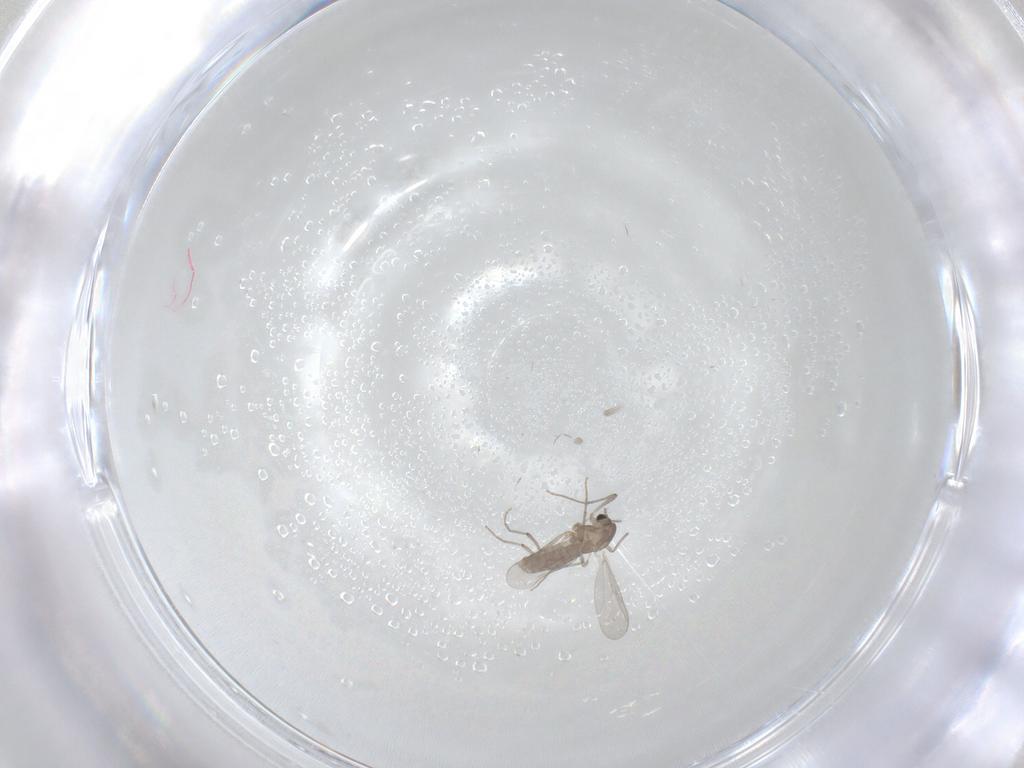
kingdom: Animalia
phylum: Arthropoda
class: Insecta
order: Diptera
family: Chironomidae
